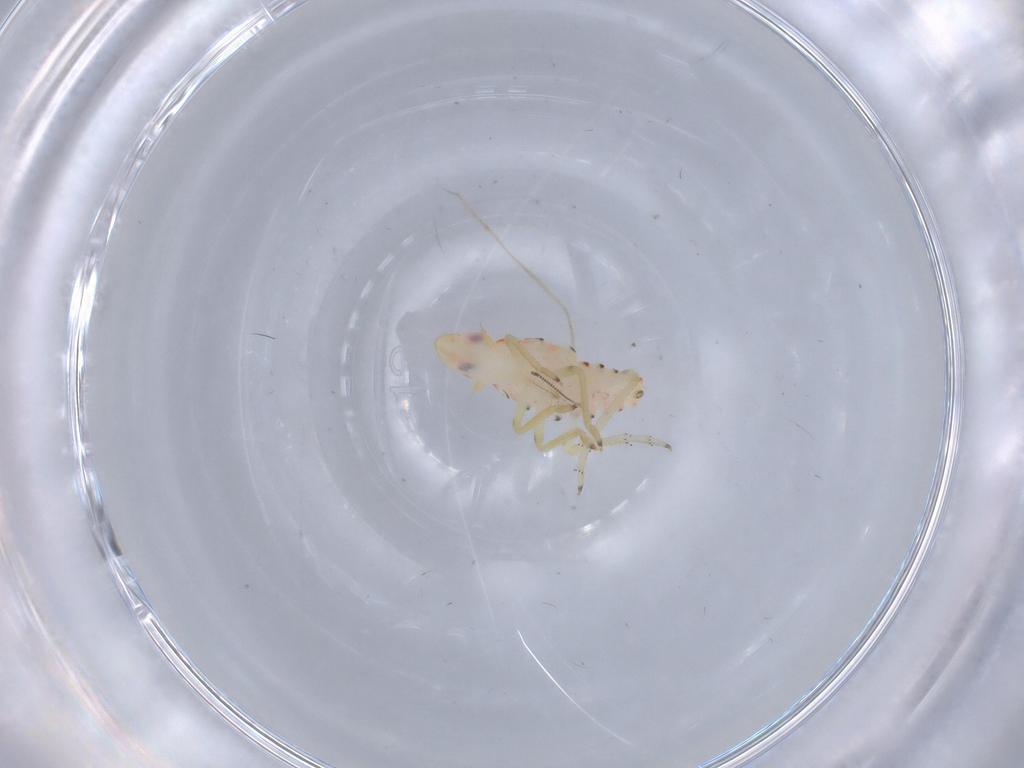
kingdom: Animalia
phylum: Arthropoda
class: Insecta
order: Hemiptera
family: Tropiduchidae
